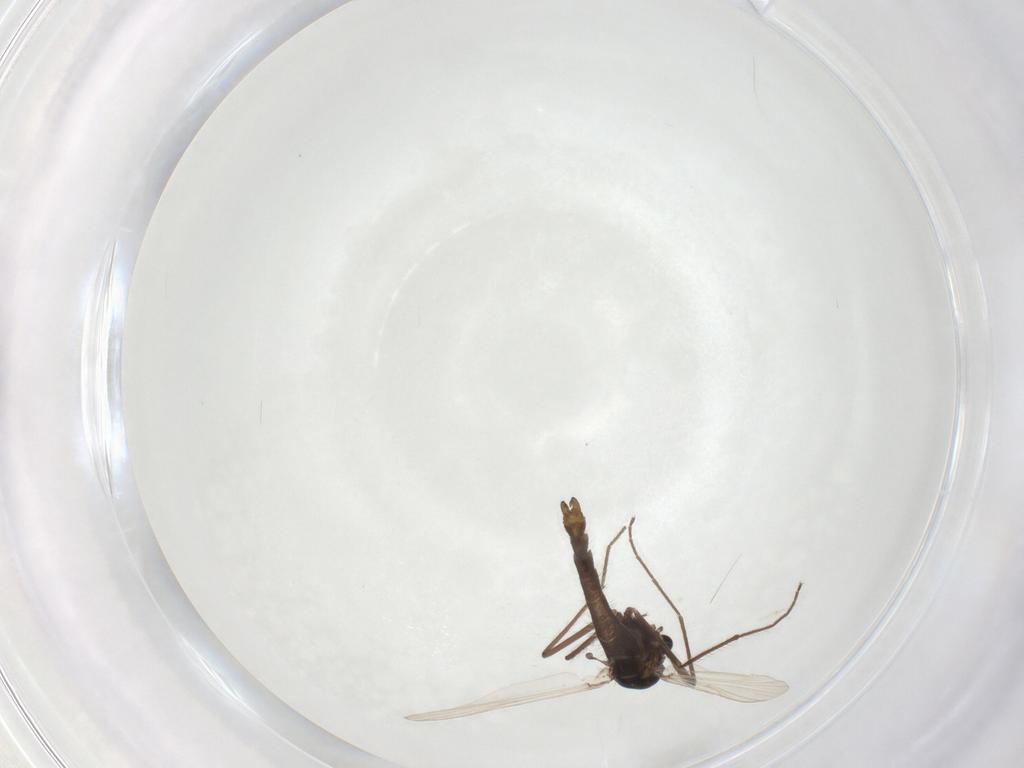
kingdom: Animalia
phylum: Arthropoda
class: Insecta
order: Diptera
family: Chironomidae
